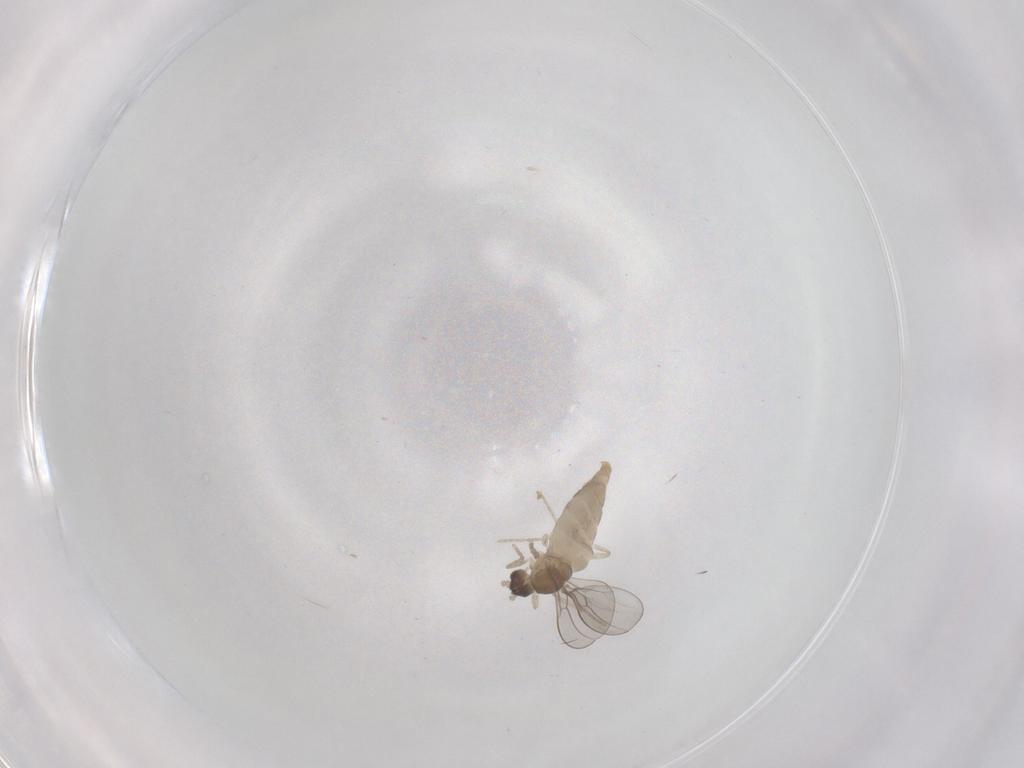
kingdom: Animalia
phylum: Arthropoda
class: Insecta
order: Diptera
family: Cecidomyiidae
